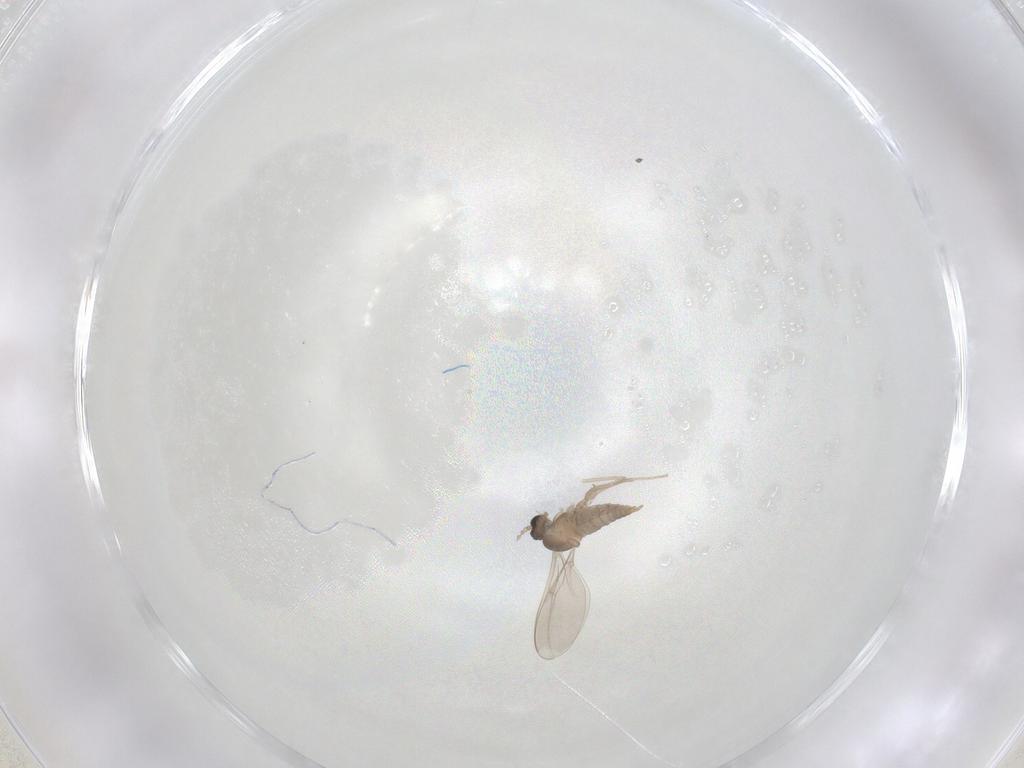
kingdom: Animalia
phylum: Arthropoda
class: Insecta
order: Diptera
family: Cecidomyiidae
